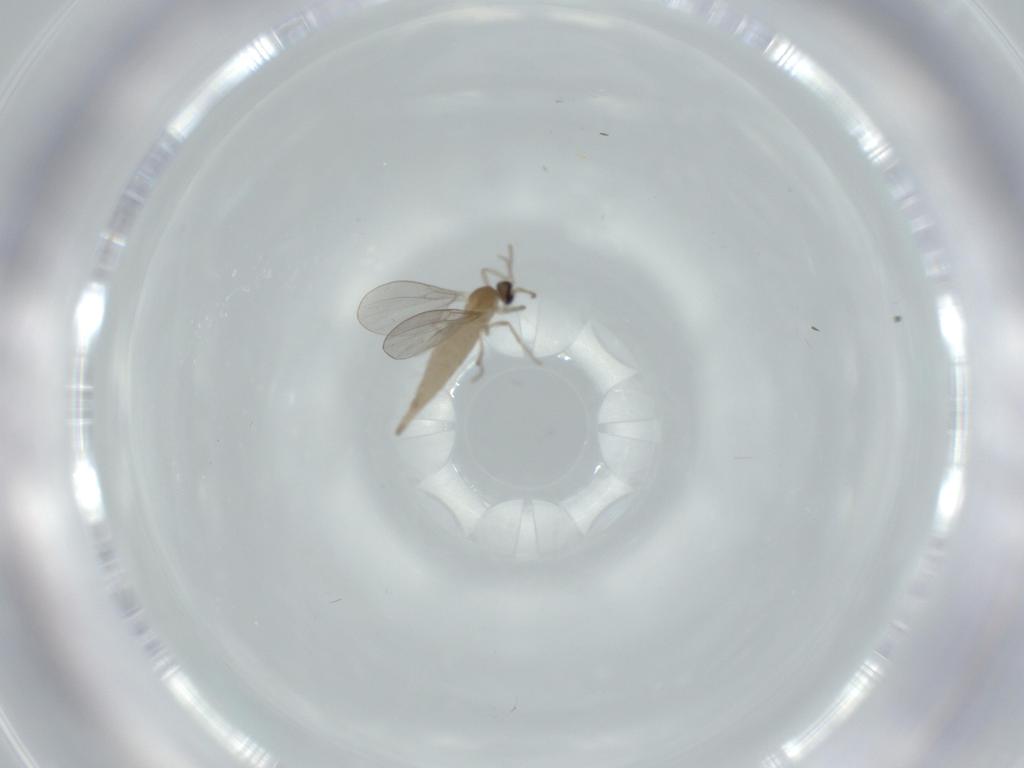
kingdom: Animalia
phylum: Arthropoda
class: Insecta
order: Diptera
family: Cecidomyiidae
